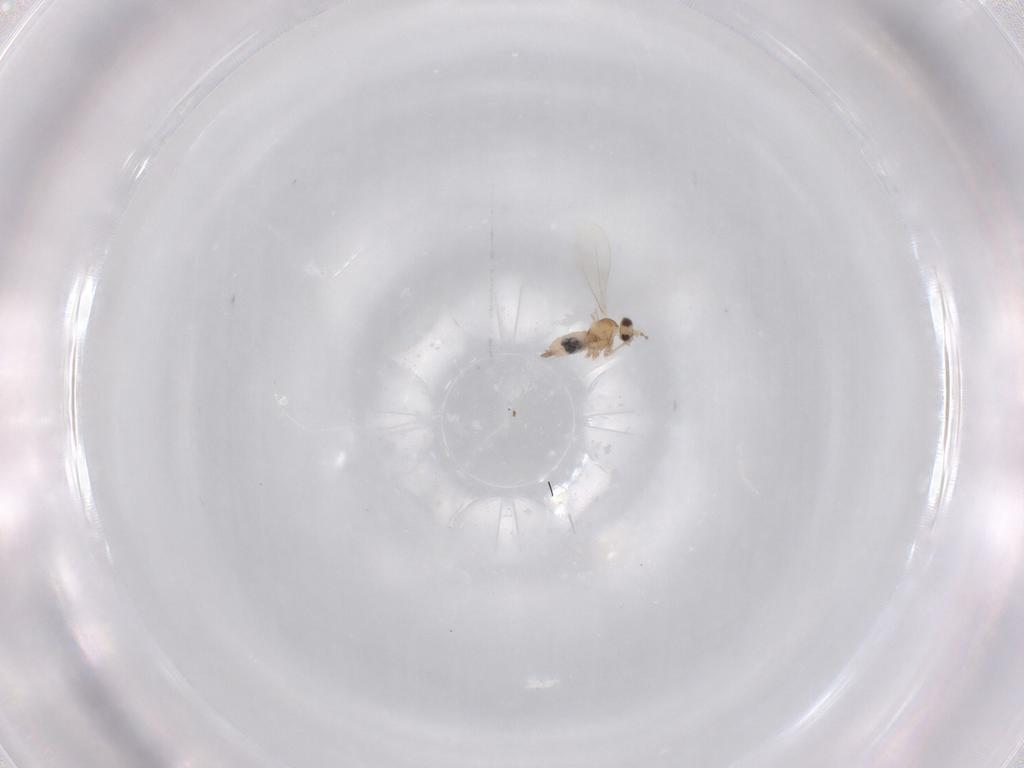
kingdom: Animalia
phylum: Arthropoda
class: Insecta
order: Diptera
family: Cecidomyiidae
